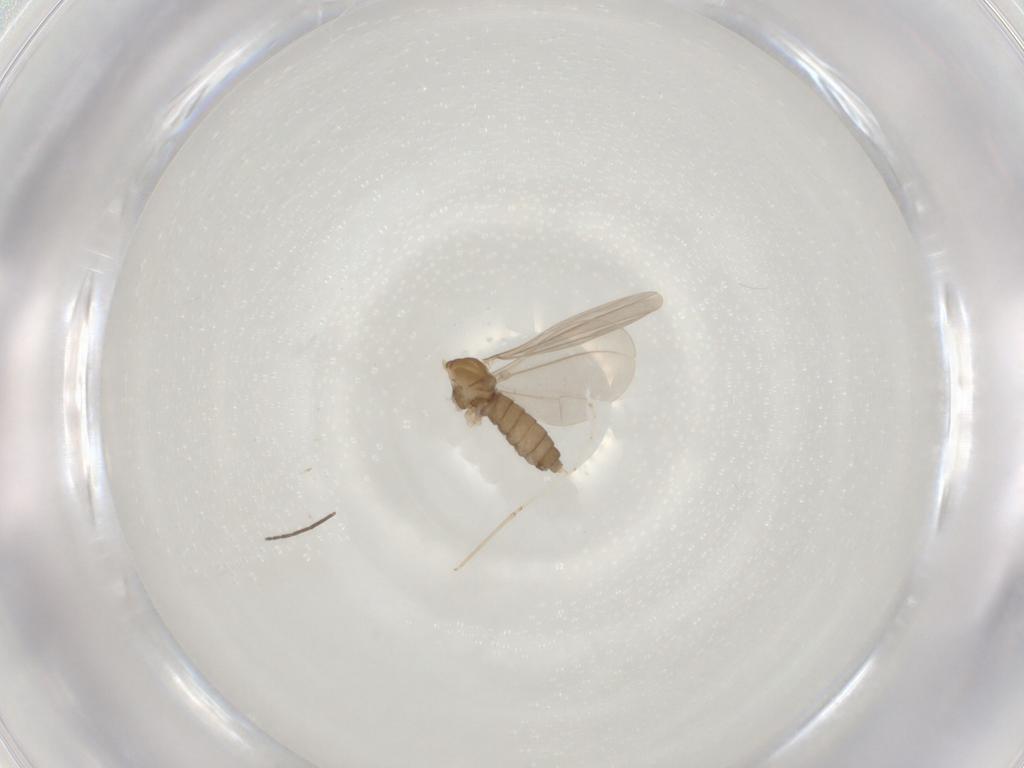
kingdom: Animalia
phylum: Arthropoda
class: Insecta
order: Diptera
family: Cecidomyiidae
